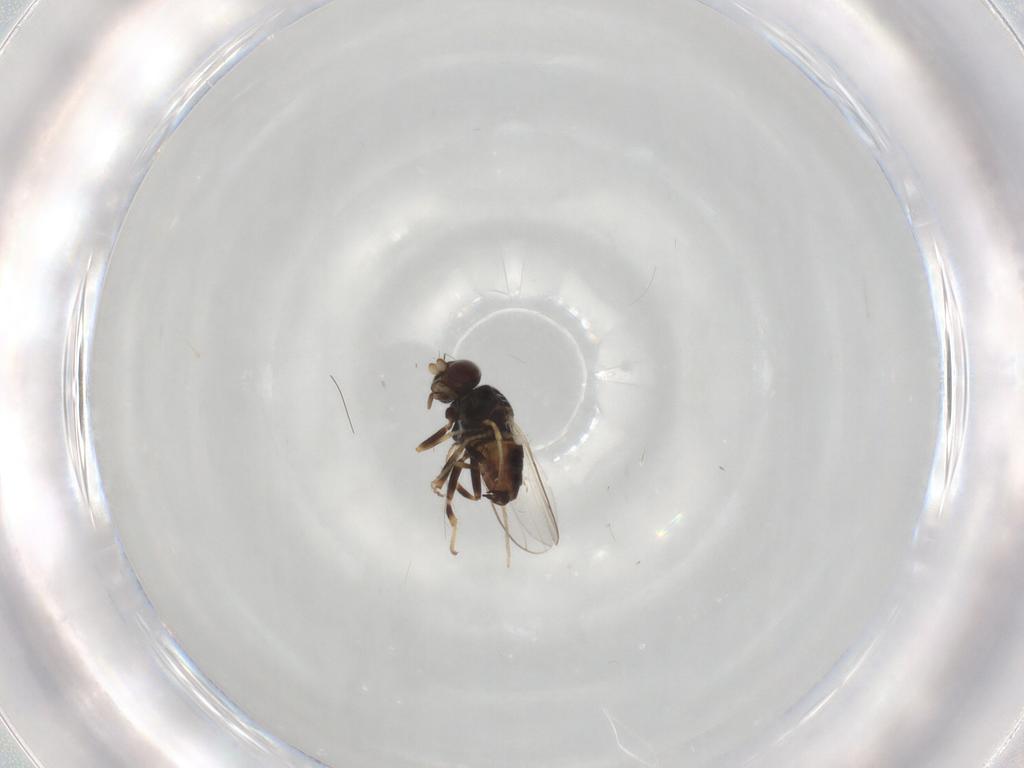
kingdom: Animalia
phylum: Arthropoda
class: Insecta
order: Diptera
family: Chloropidae
